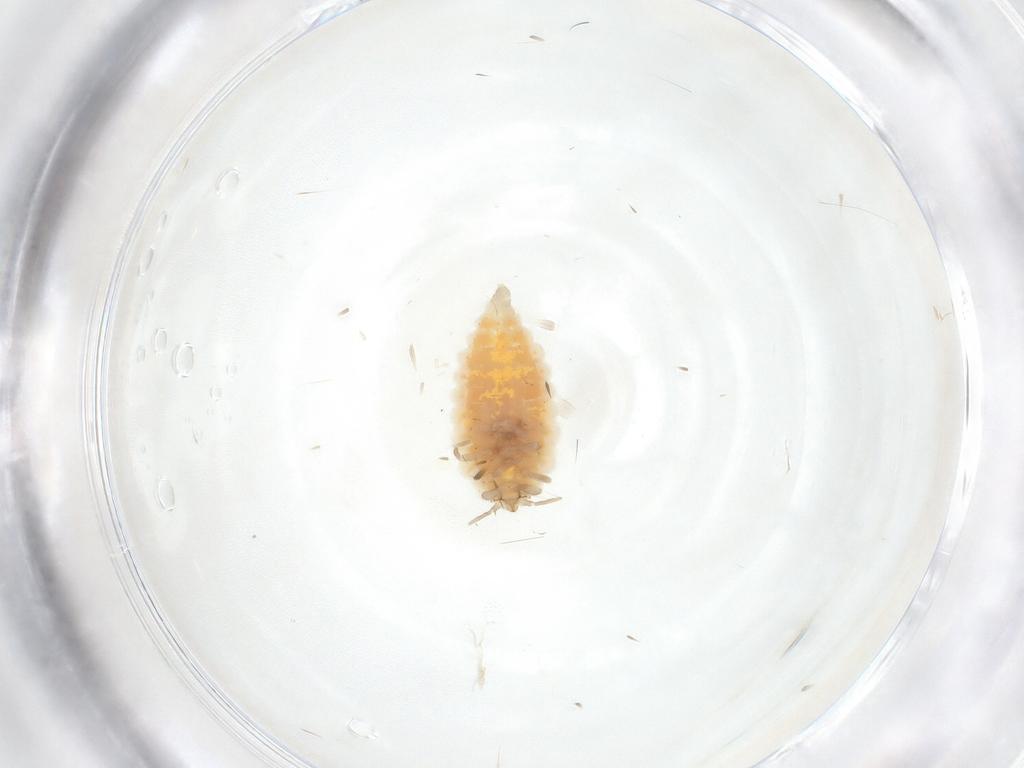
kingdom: Animalia
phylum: Arthropoda
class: Insecta
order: Neuroptera
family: Coniopterygidae
